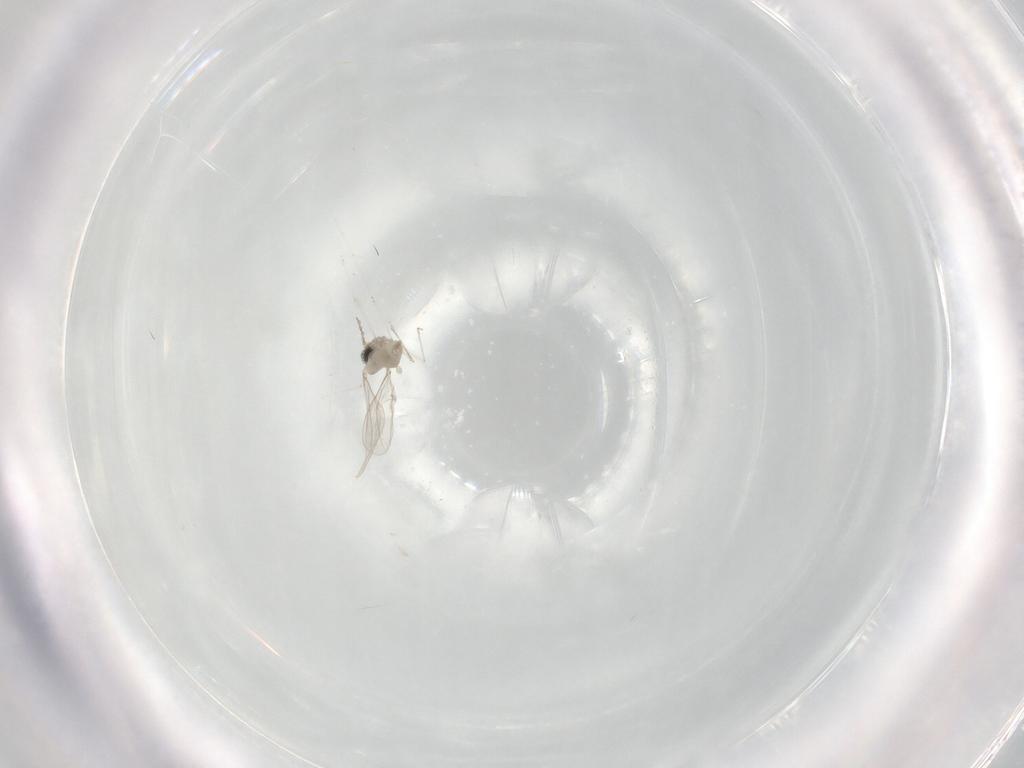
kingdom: Animalia
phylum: Arthropoda
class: Insecta
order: Diptera
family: Cecidomyiidae
